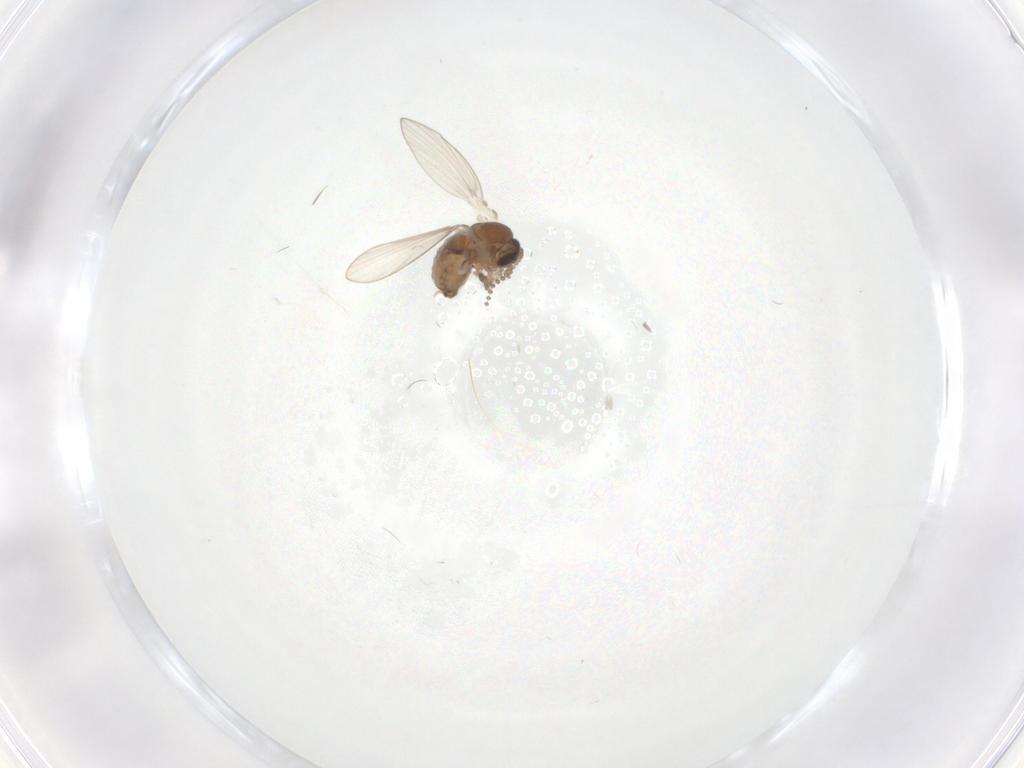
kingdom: Animalia
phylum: Arthropoda
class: Insecta
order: Diptera
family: Psychodidae
